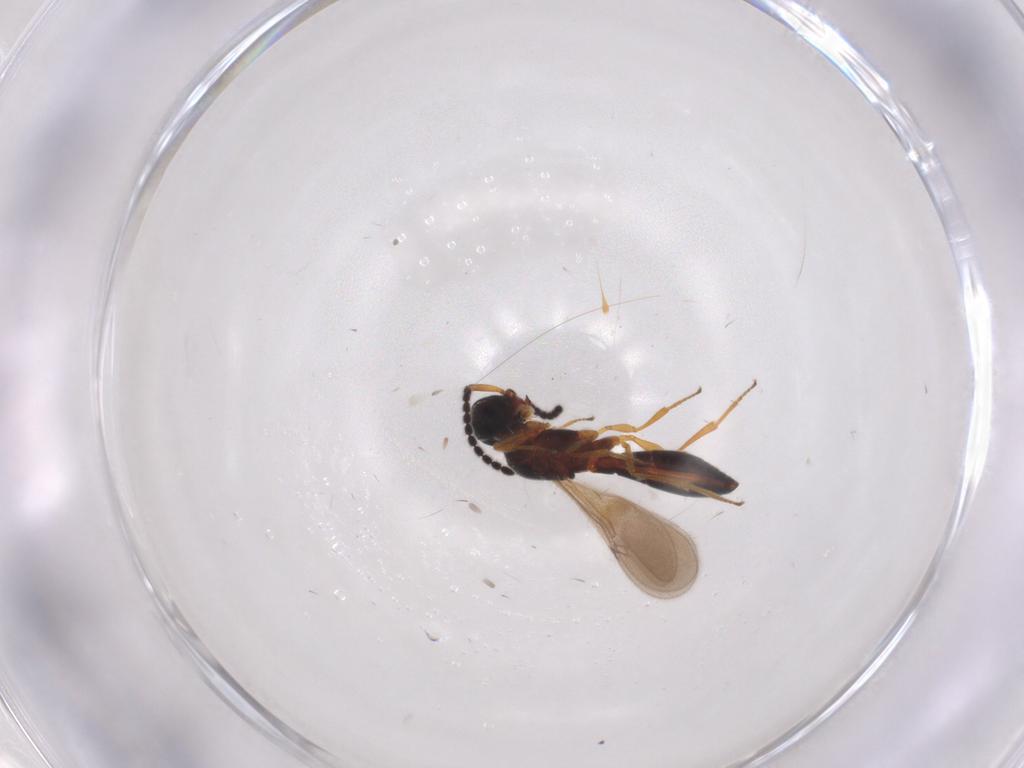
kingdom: Animalia
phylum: Arthropoda
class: Insecta
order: Hymenoptera
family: Scelionidae
